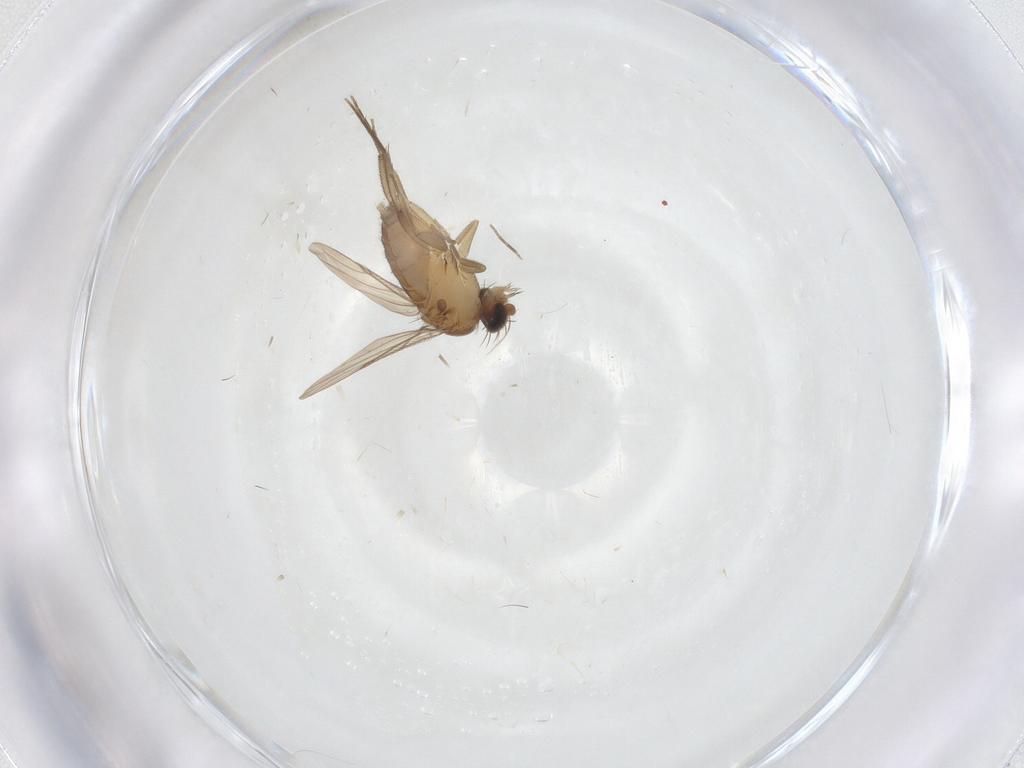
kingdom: Animalia
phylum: Arthropoda
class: Insecta
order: Diptera
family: Phoridae
